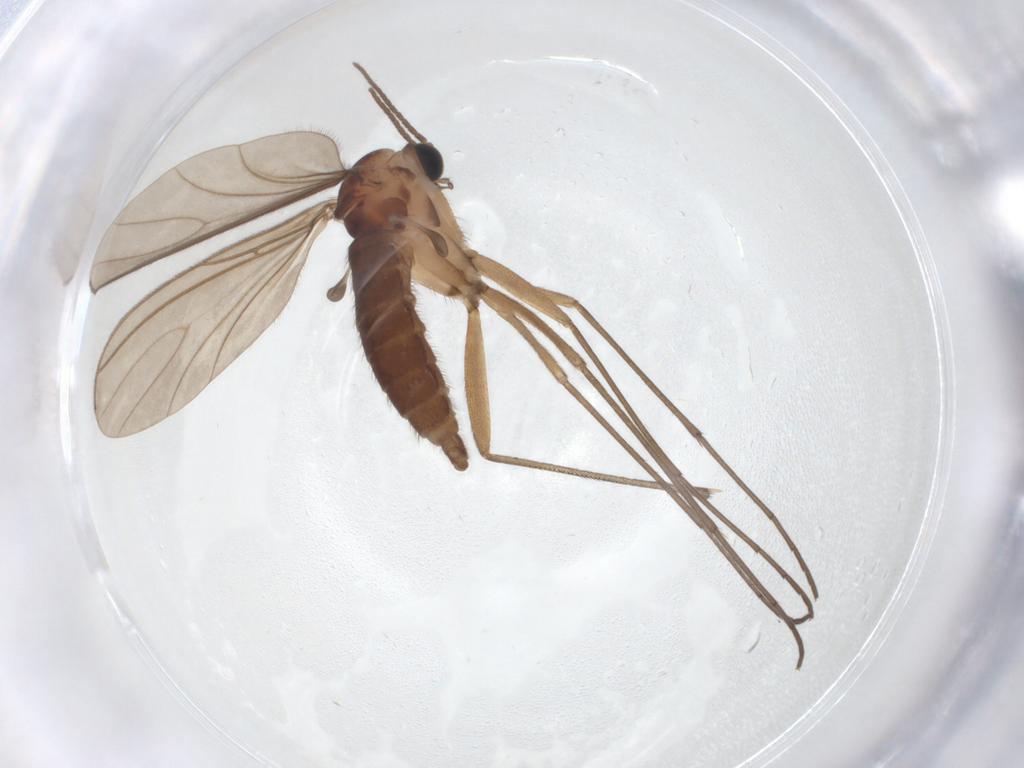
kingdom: Animalia
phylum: Arthropoda
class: Insecta
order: Diptera
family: Sciaridae
